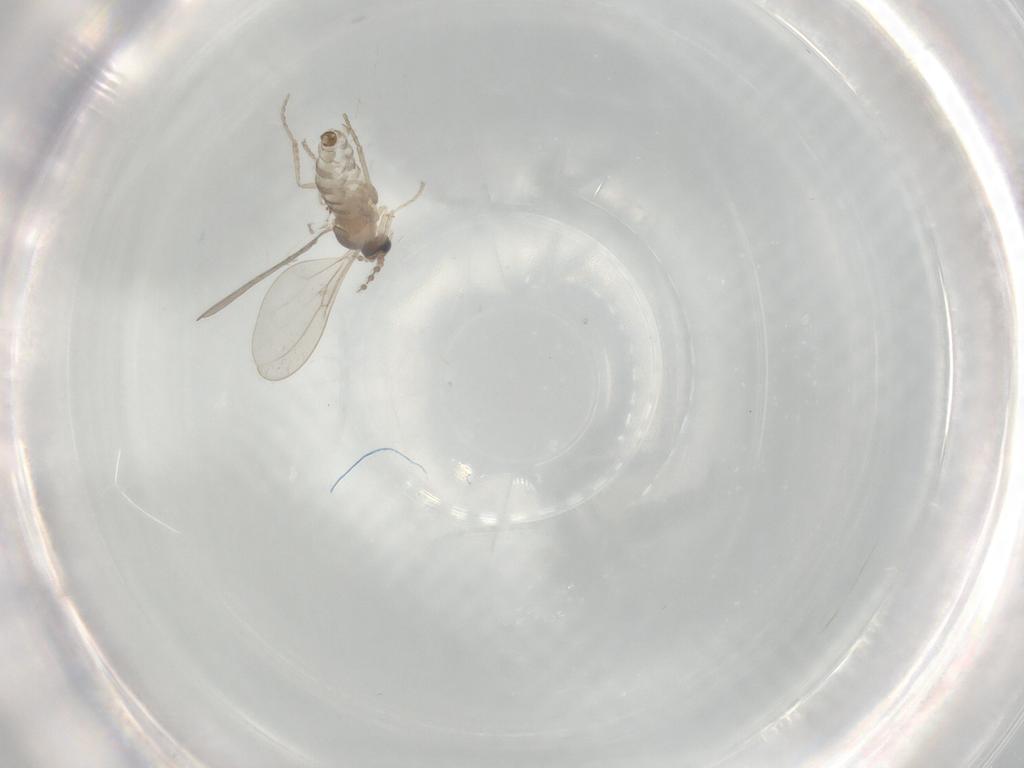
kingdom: Animalia
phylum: Arthropoda
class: Insecta
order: Diptera
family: Cecidomyiidae
